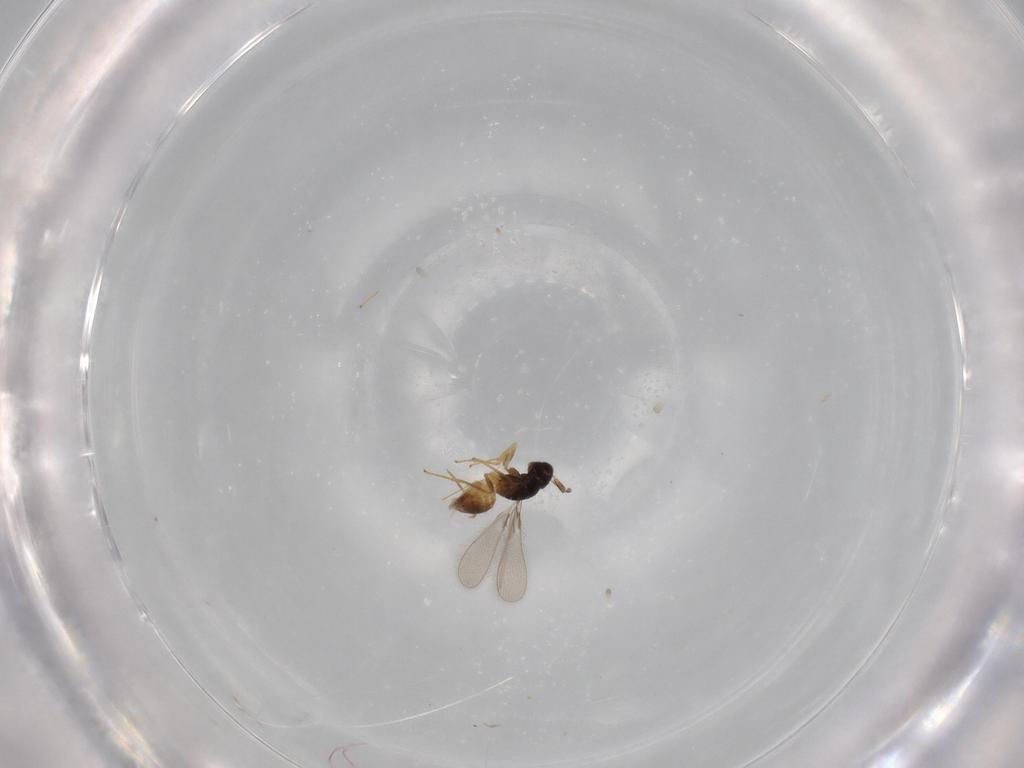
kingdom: Animalia
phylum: Arthropoda
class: Insecta
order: Hymenoptera
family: Mymaridae
